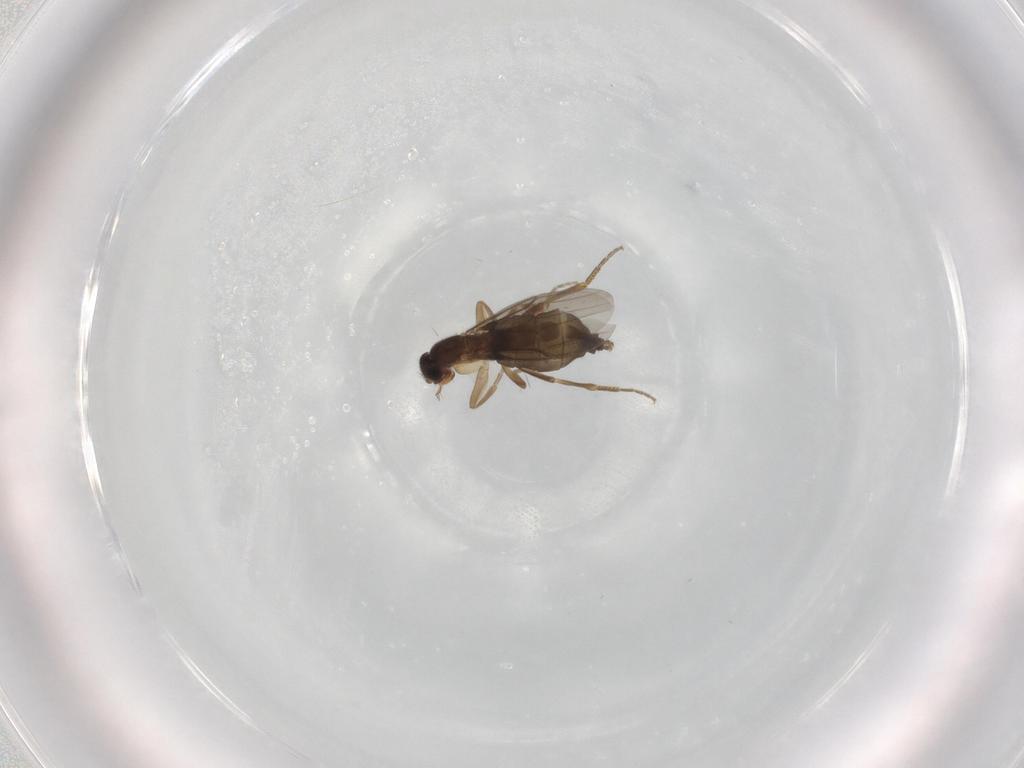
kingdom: Animalia
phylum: Arthropoda
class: Insecta
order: Diptera
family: Phoridae
